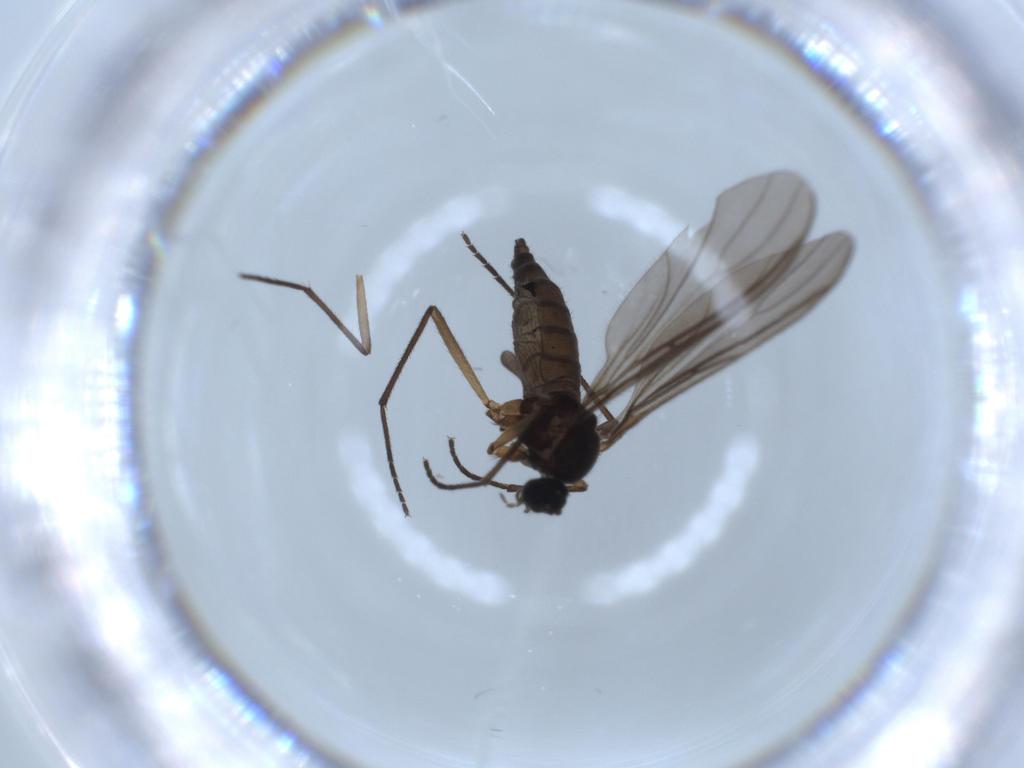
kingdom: Animalia
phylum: Arthropoda
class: Insecta
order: Diptera
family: Sciaridae
